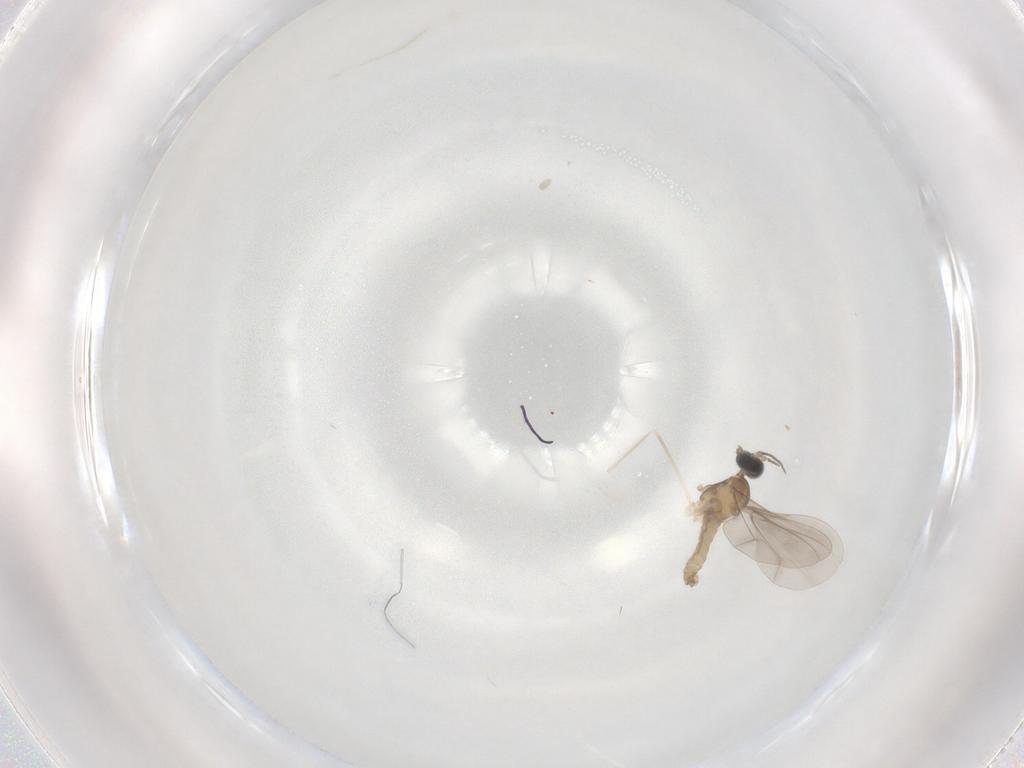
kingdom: Animalia
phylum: Arthropoda
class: Insecta
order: Diptera
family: Cecidomyiidae
